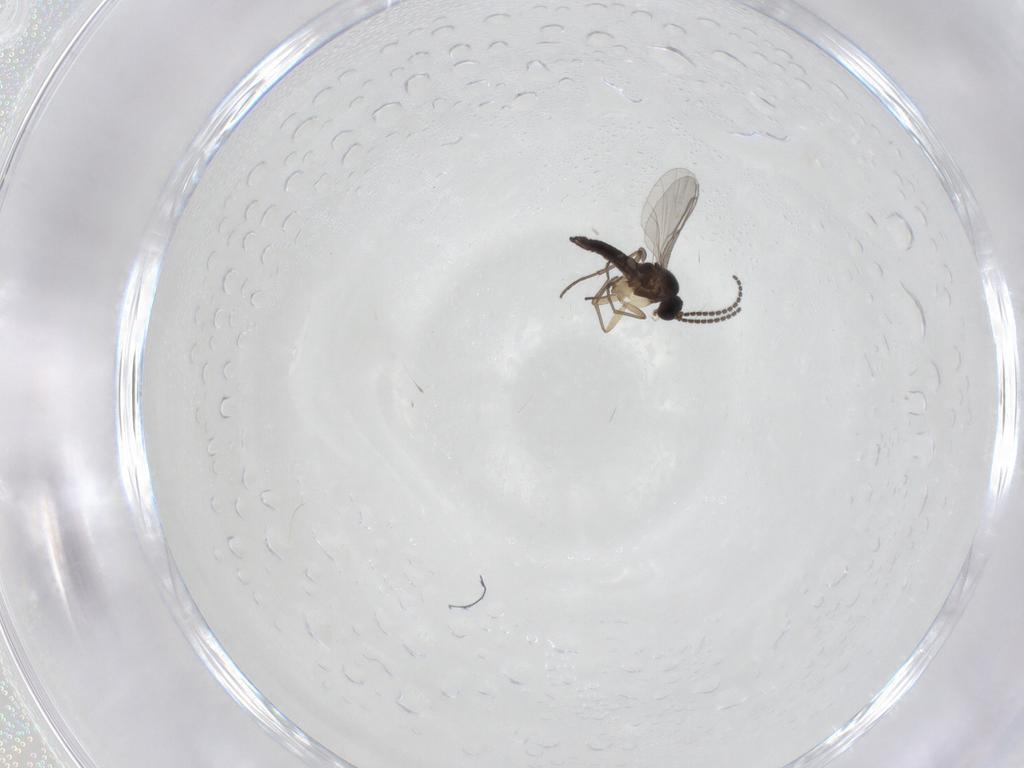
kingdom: Animalia
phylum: Arthropoda
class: Insecta
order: Diptera
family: Sciaridae
